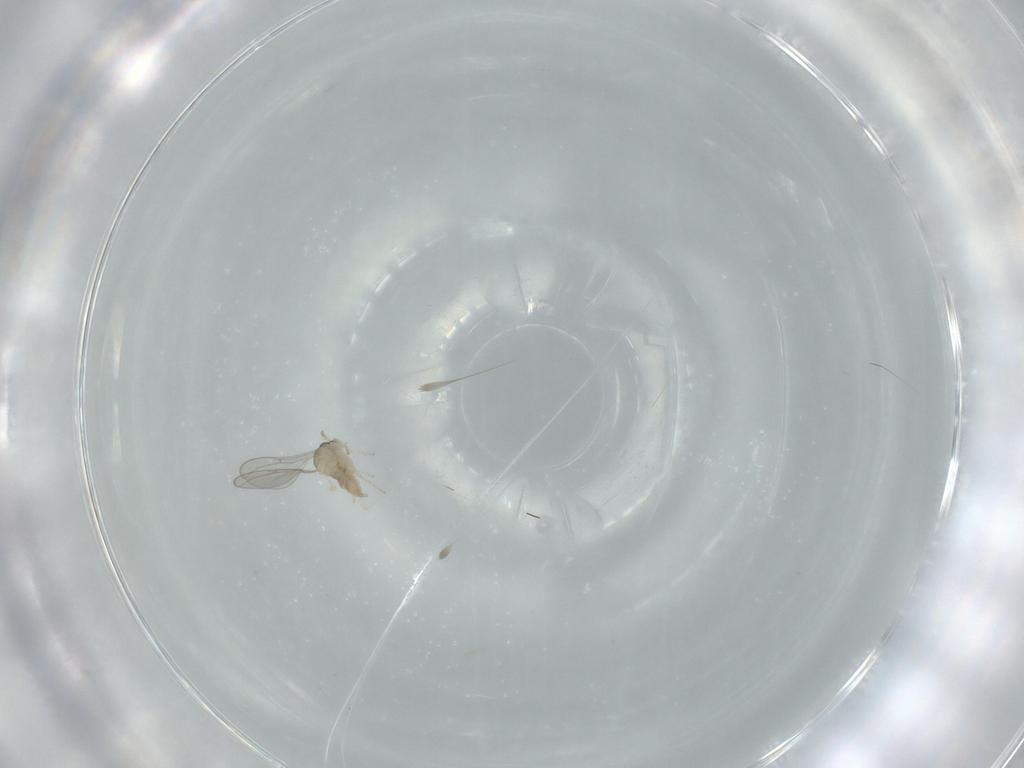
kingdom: Animalia
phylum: Arthropoda
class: Insecta
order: Diptera
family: Cecidomyiidae
